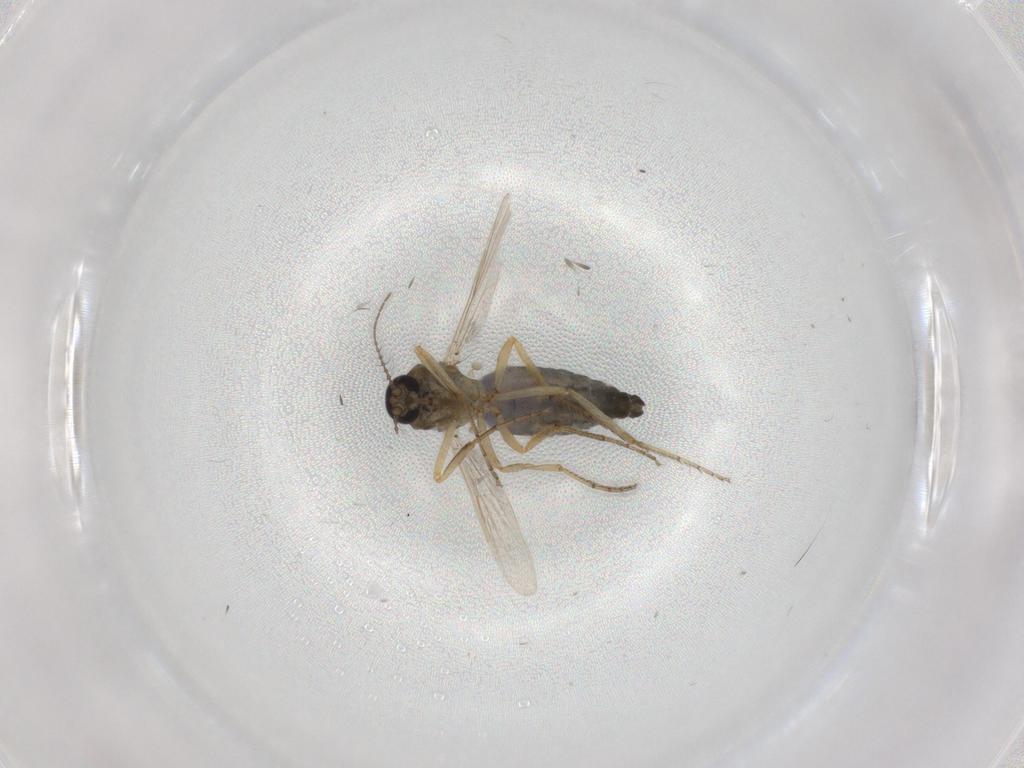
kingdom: Animalia
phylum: Arthropoda
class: Insecta
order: Diptera
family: Ceratopogonidae
